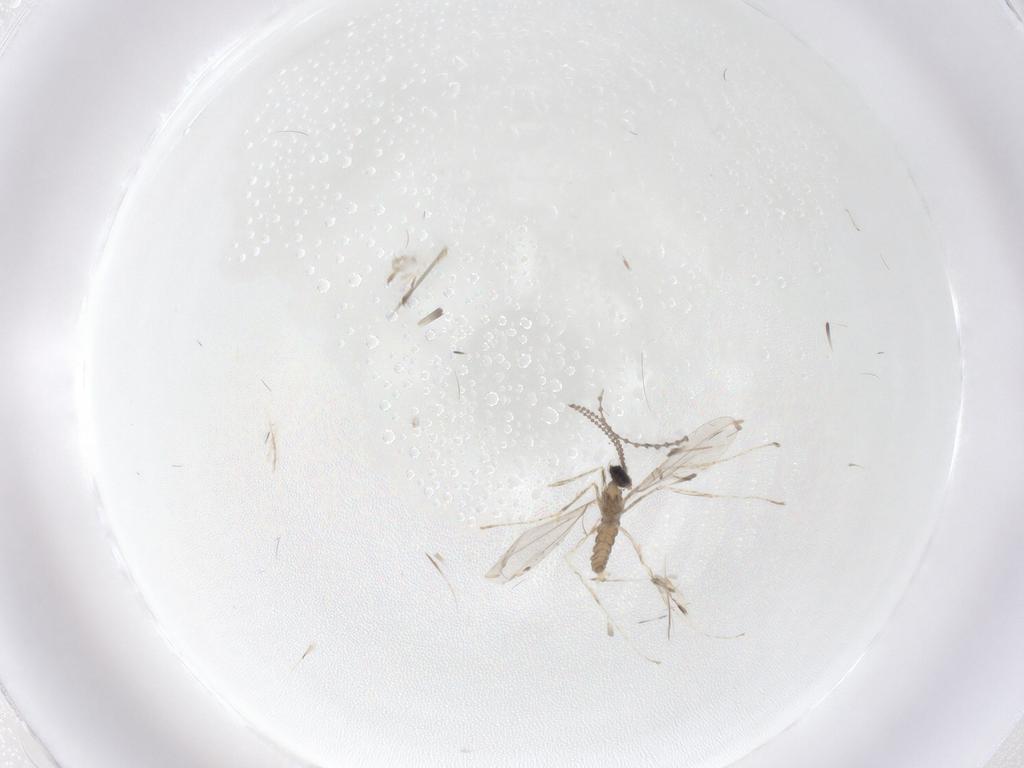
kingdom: Animalia
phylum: Arthropoda
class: Insecta
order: Diptera
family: Cecidomyiidae
